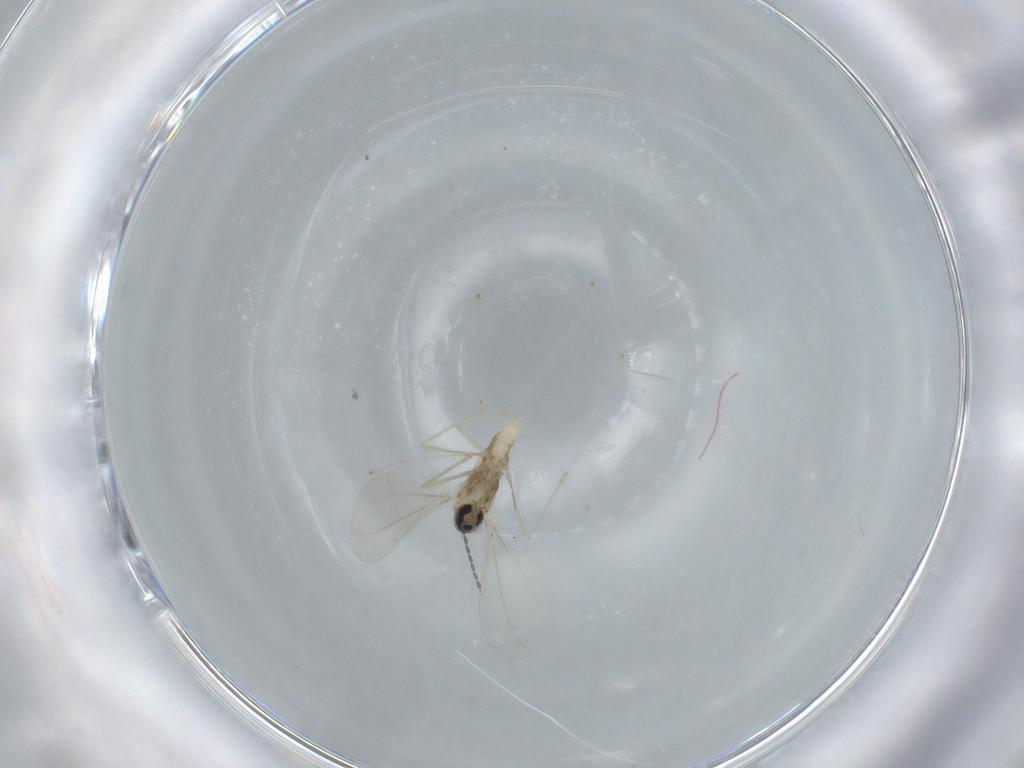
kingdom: Animalia
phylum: Arthropoda
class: Insecta
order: Diptera
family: Cecidomyiidae
